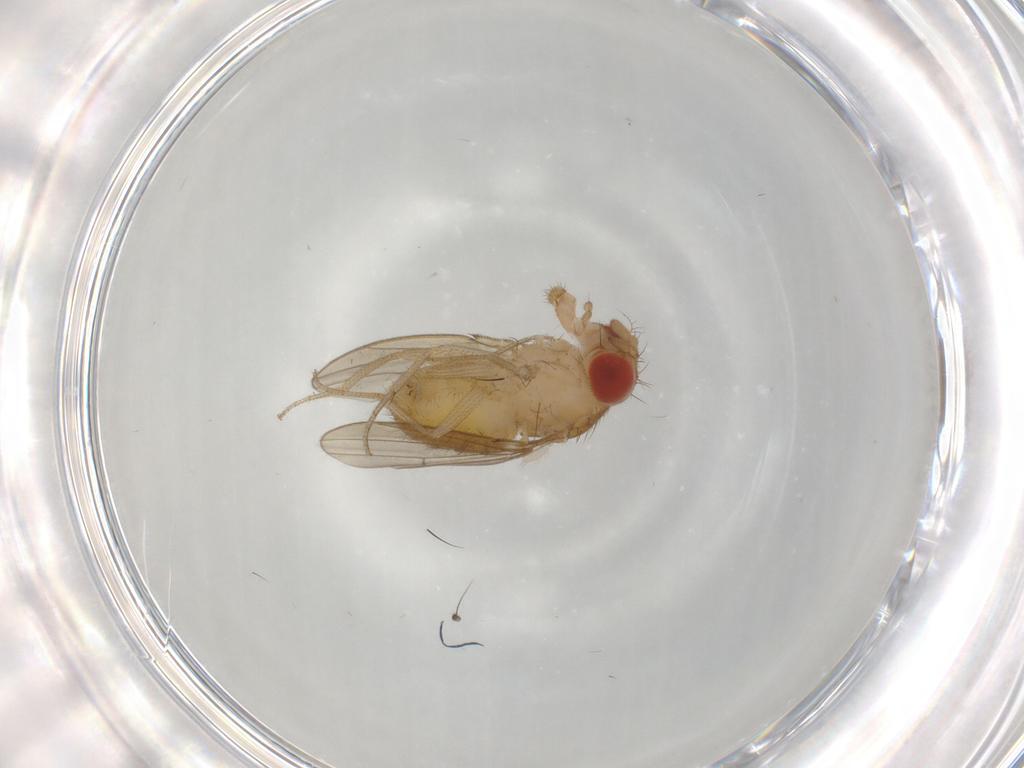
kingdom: Animalia
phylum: Arthropoda
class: Insecta
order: Diptera
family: Drosophilidae
